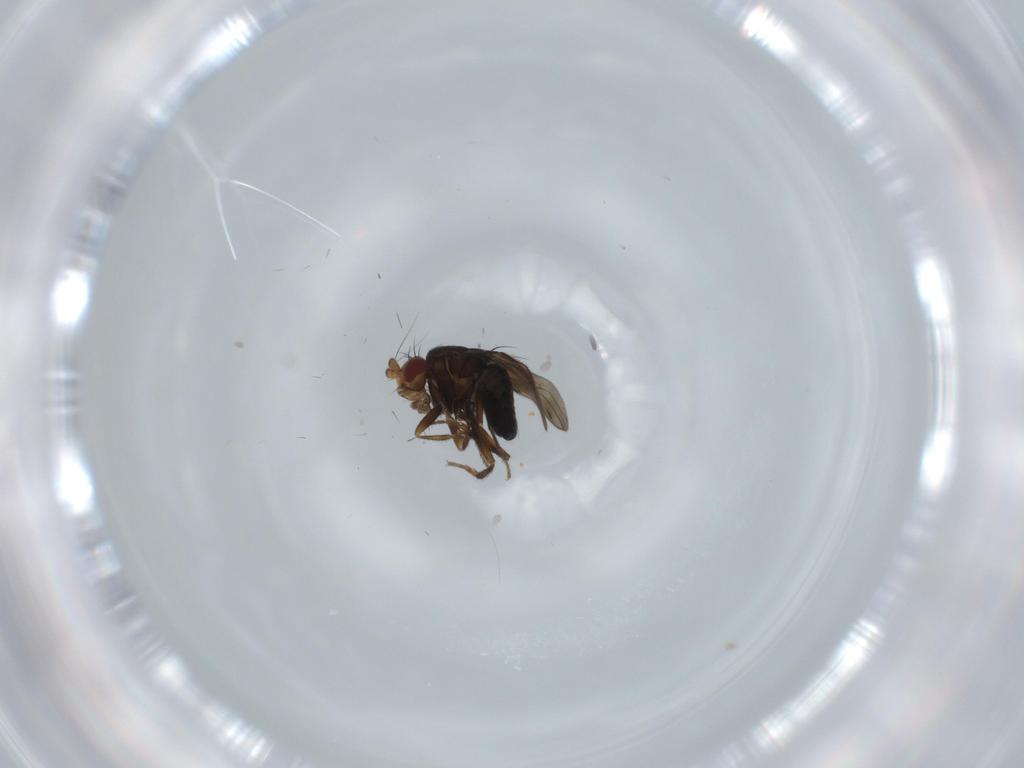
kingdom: Animalia
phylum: Arthropoda
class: Insecta
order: Diptera
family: Sphaeroceridae
